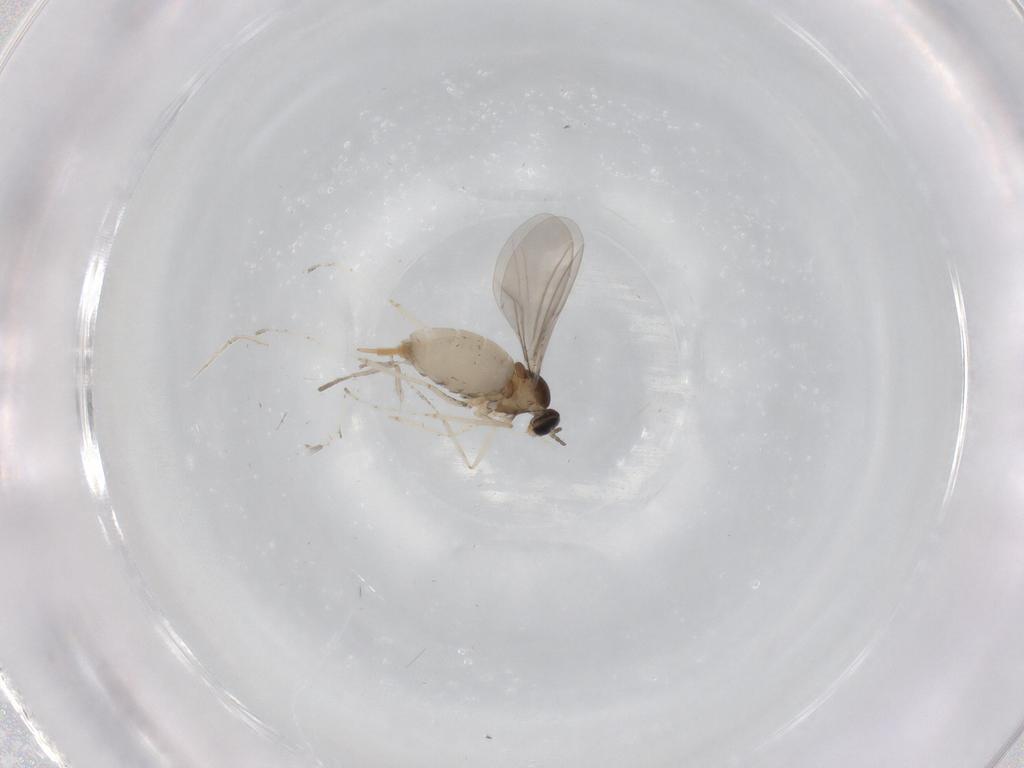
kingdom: Animalia
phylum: Arthropoda
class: Insecta
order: Diptera
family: Cecidomyiidae
